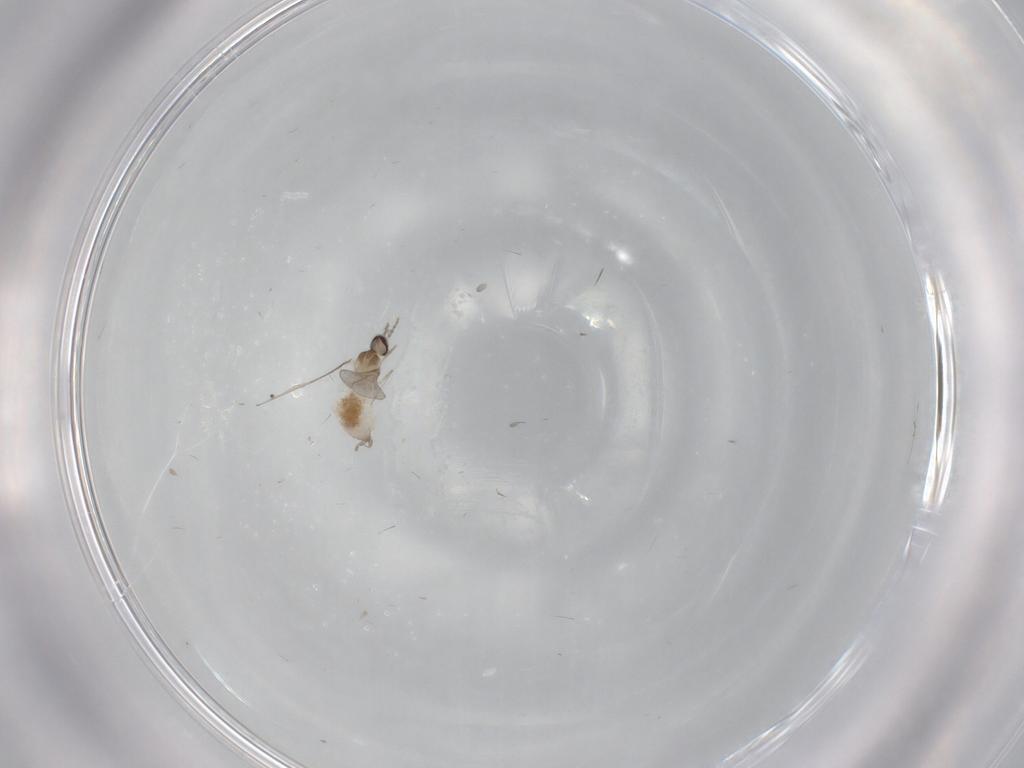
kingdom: Animalia
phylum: Arthropoda
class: Insecta
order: Diptera
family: Cecidomyiidae
